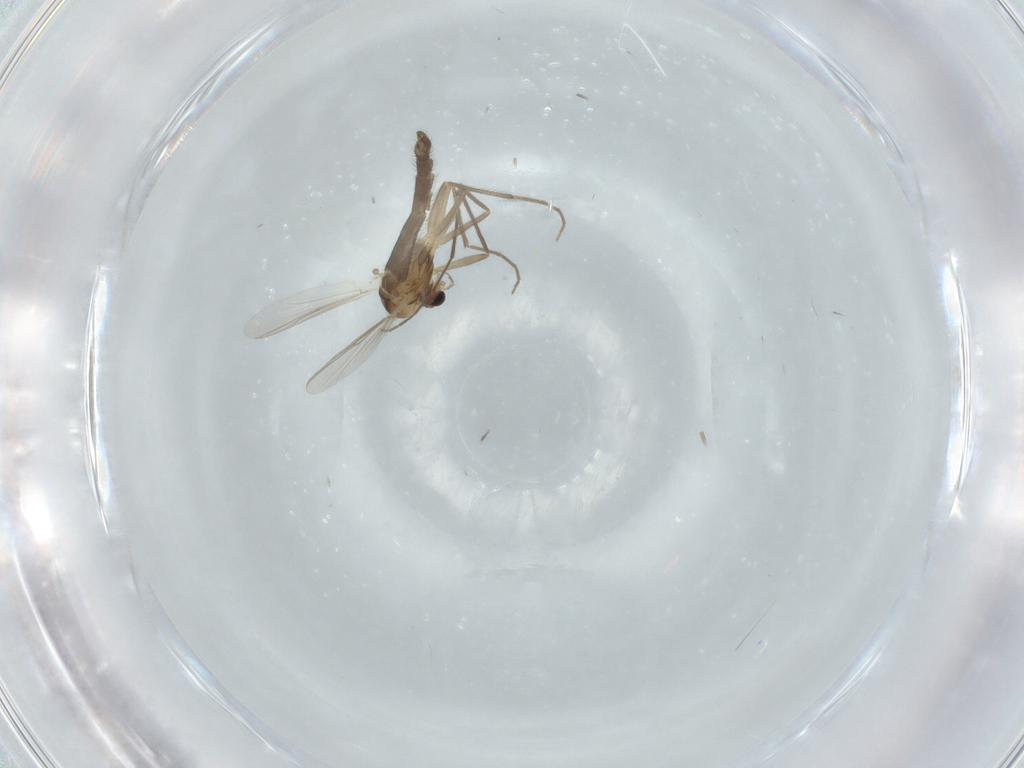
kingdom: Animalia
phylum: Arthropoda
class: Insecta
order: Diptera
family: Chironomidae
